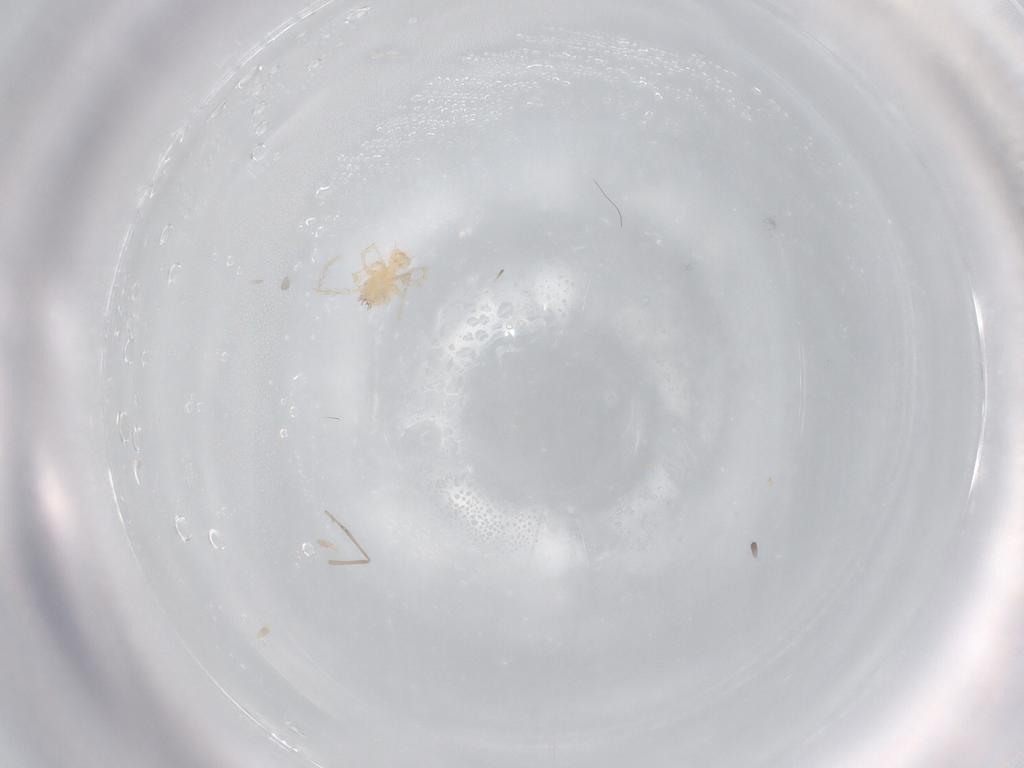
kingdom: Animalia
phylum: Arthropoda
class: Arachnida
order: Trombidiformes
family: Erythraeidae
